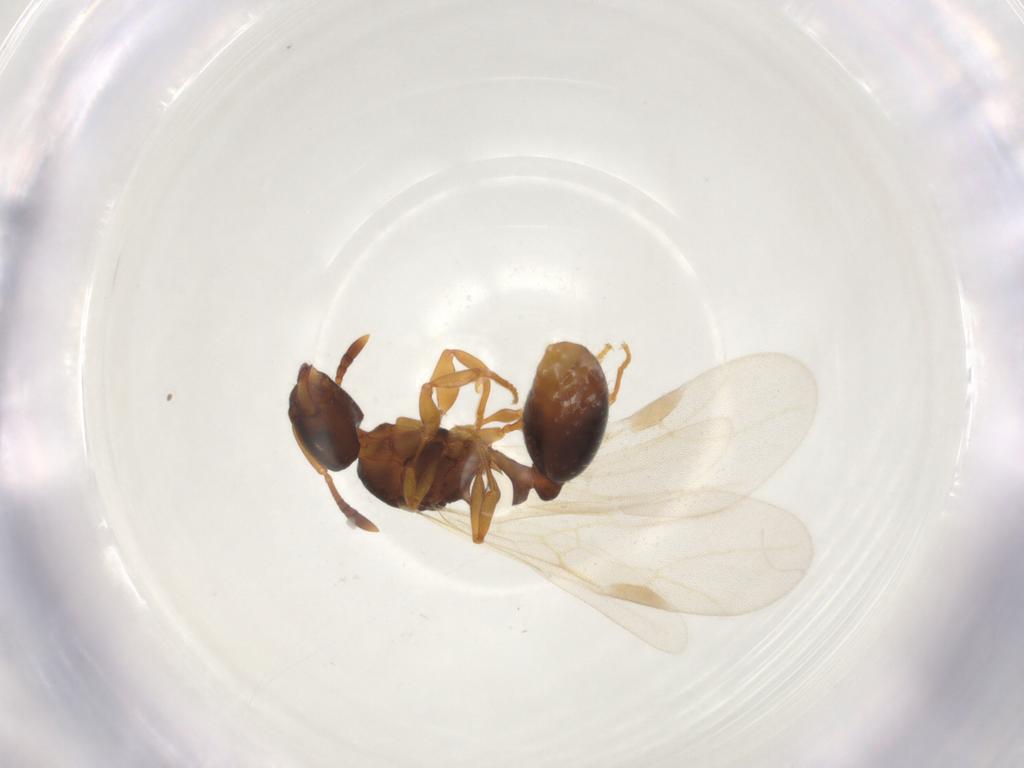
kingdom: Animalia
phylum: Arthropoda
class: Insecta
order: Hymenoptera
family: Formicidae
